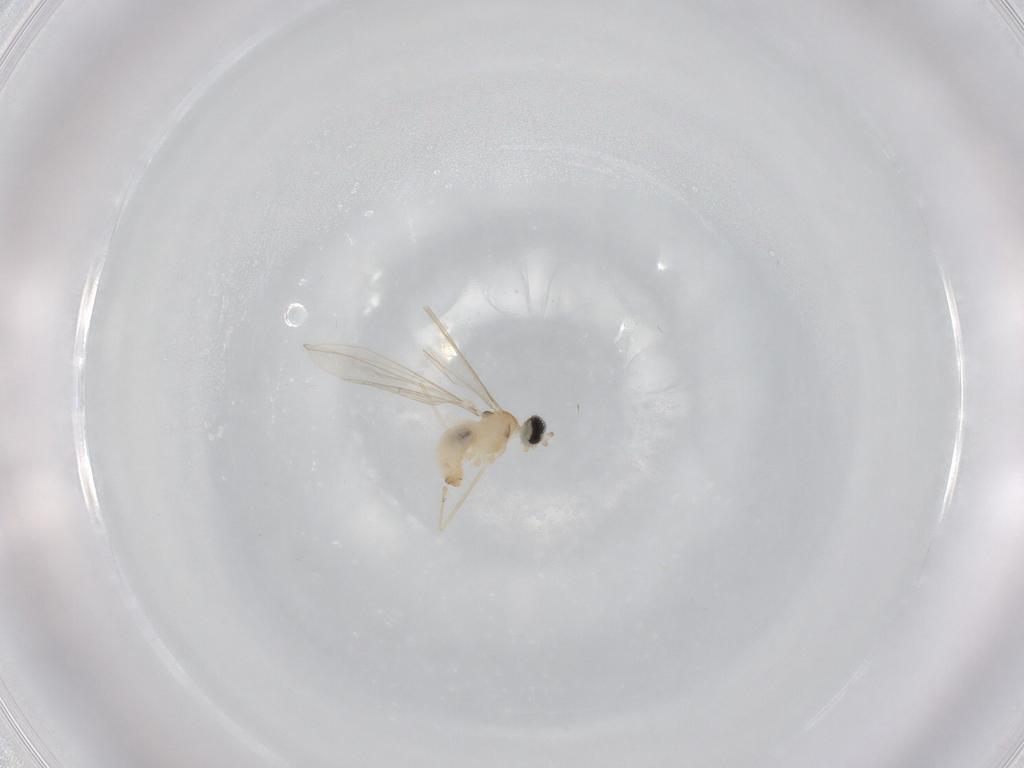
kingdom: Animalia
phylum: Arthropoda
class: Insecta
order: Diptera
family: Cecidomyiidae
